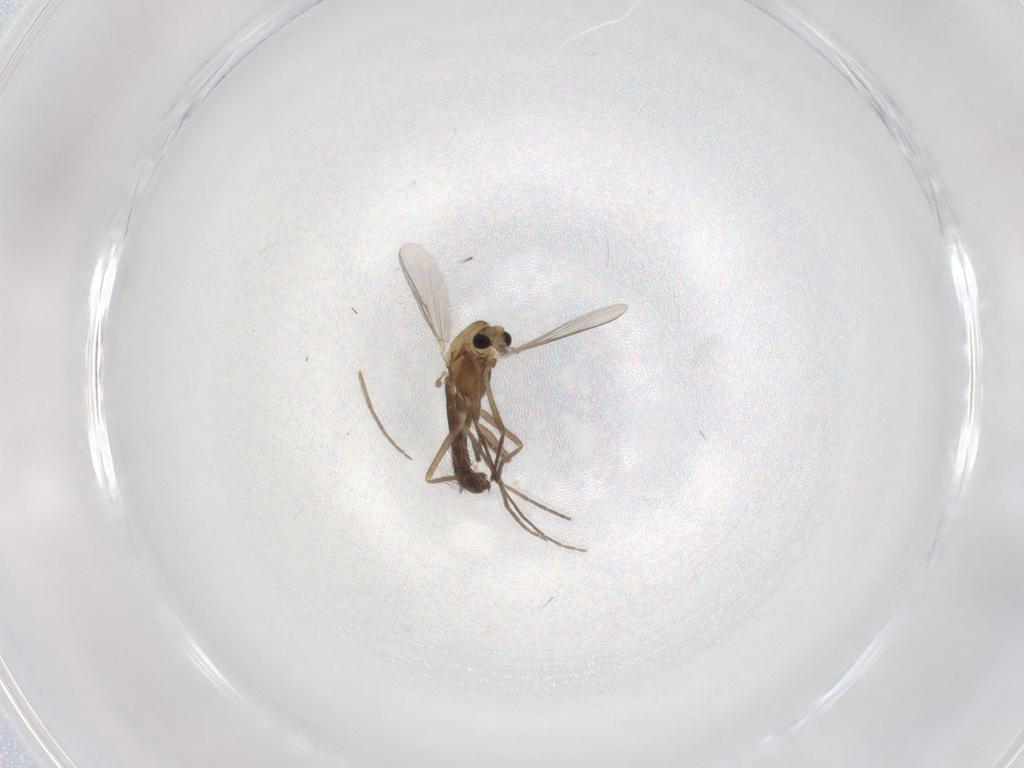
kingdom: Animalia
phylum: Arthropoda
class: Insecta
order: Diptera
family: Chironomidae
